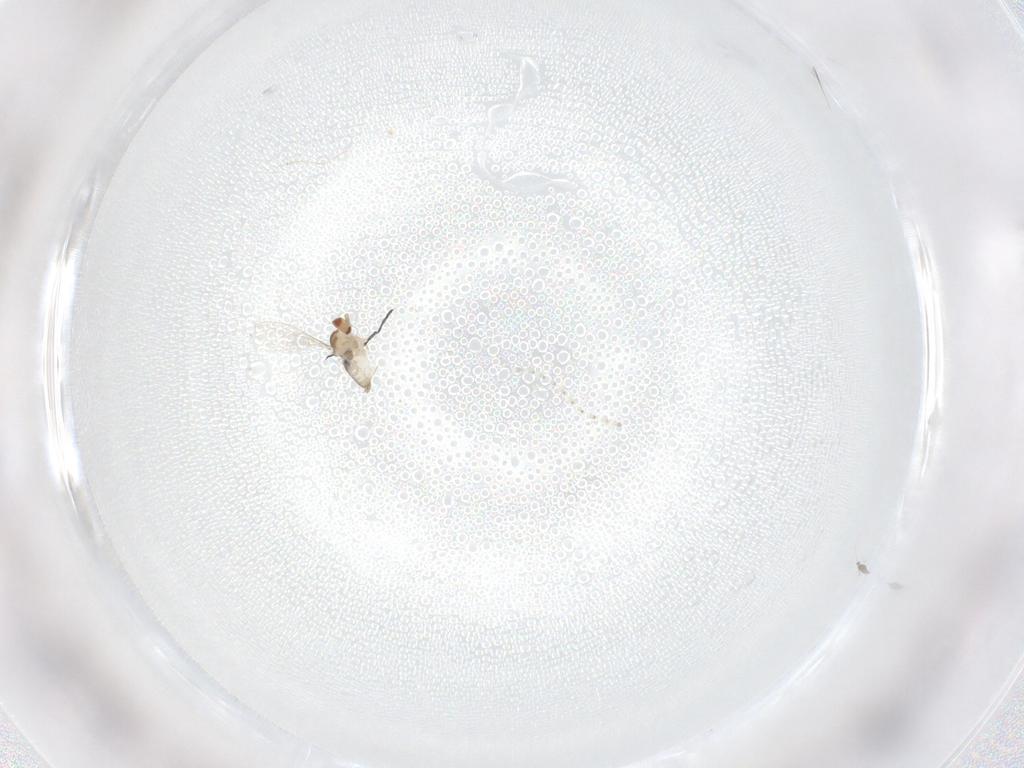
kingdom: Animalia
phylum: Arthropoda
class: Insecta
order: Diptera
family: Cecidomyiidae
